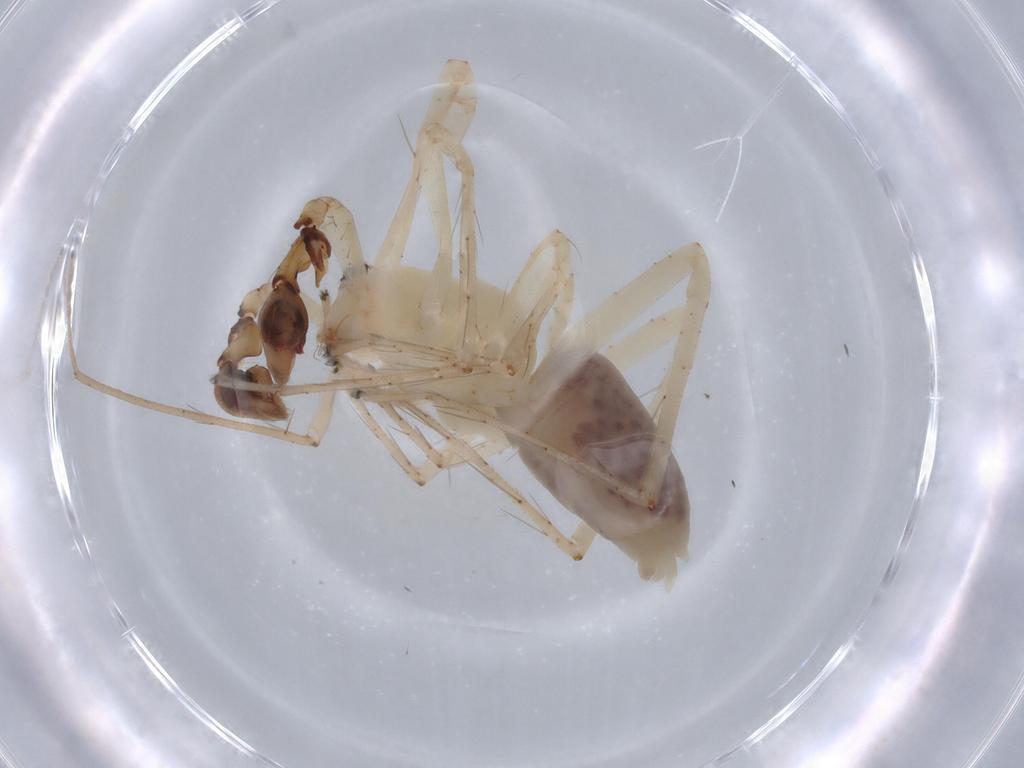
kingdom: Animalia
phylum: Arthropoda
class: Arachnida
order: Araneae
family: Anyphaenidae
